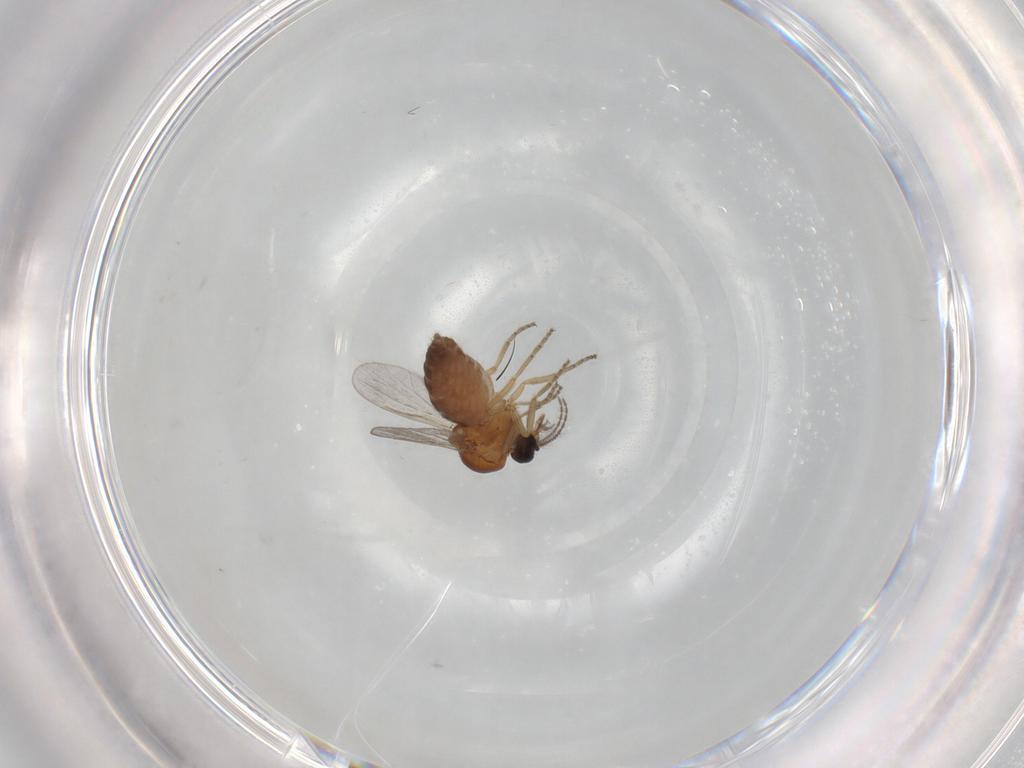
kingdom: Animalia
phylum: Arthropoda
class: Insecta
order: Diptera
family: Ceratopogonidae
